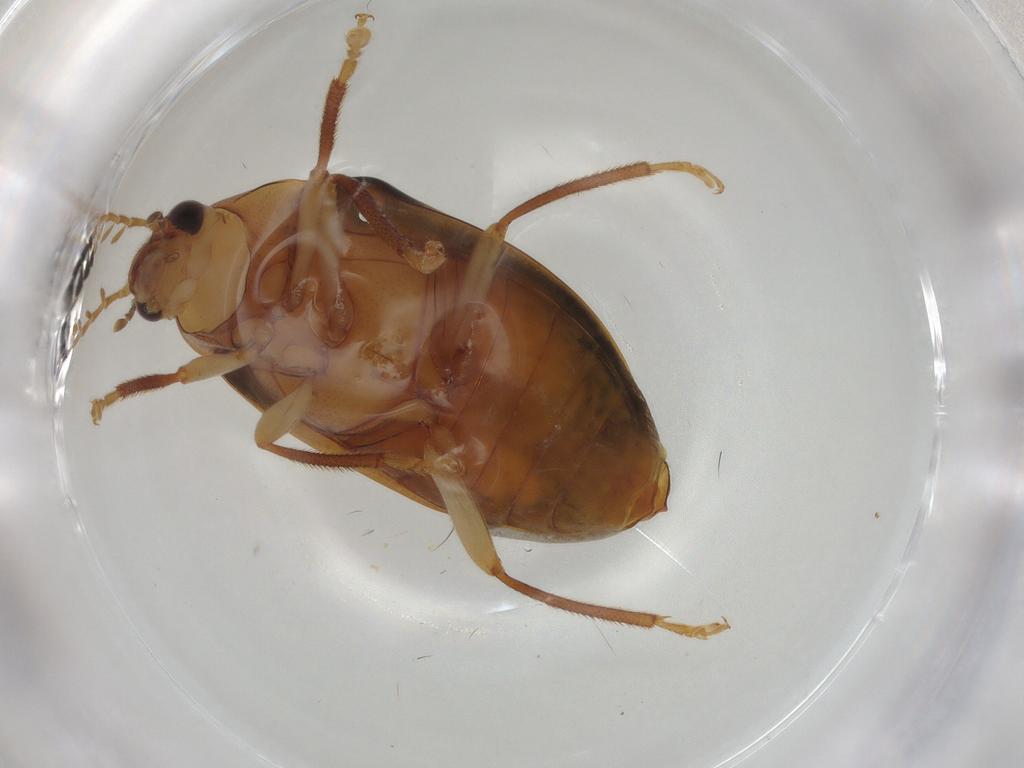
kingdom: Animalia
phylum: Arthropoda
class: Insecta
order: Coleoptera
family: Ptilodactylidae
